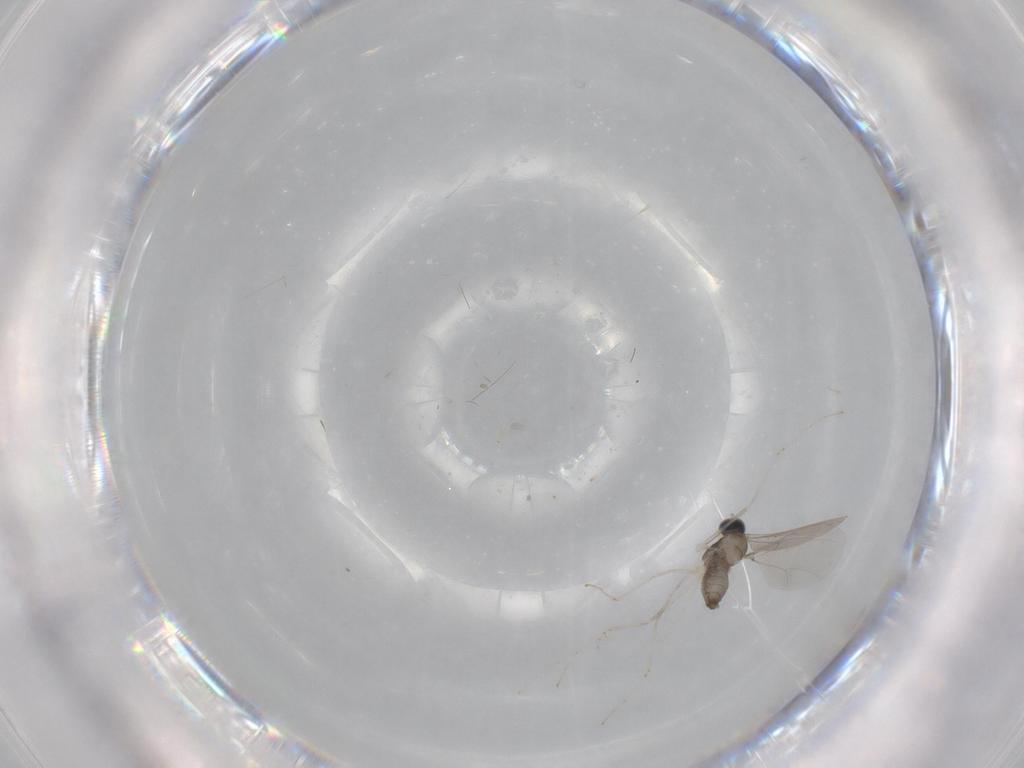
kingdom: Animalia
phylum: Arthropoda
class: Insecta
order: Diptera
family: Cecidomyiidae
